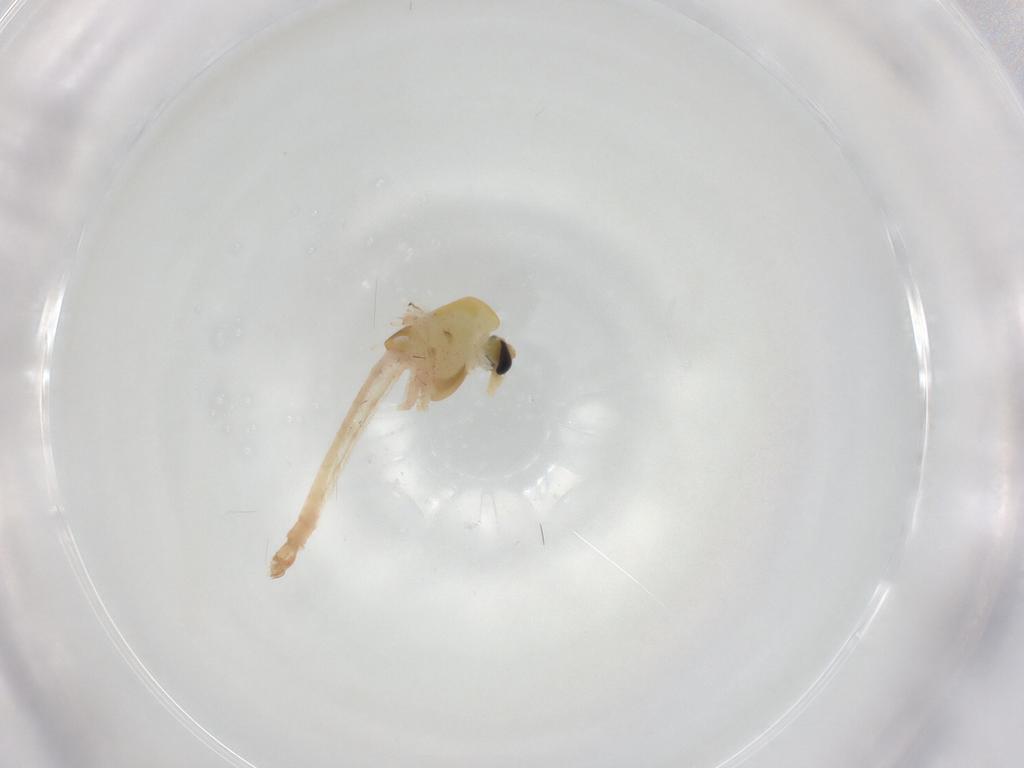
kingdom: Animalia
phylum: Arthropoda
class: Insecta
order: Diptera
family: Chironomidae
